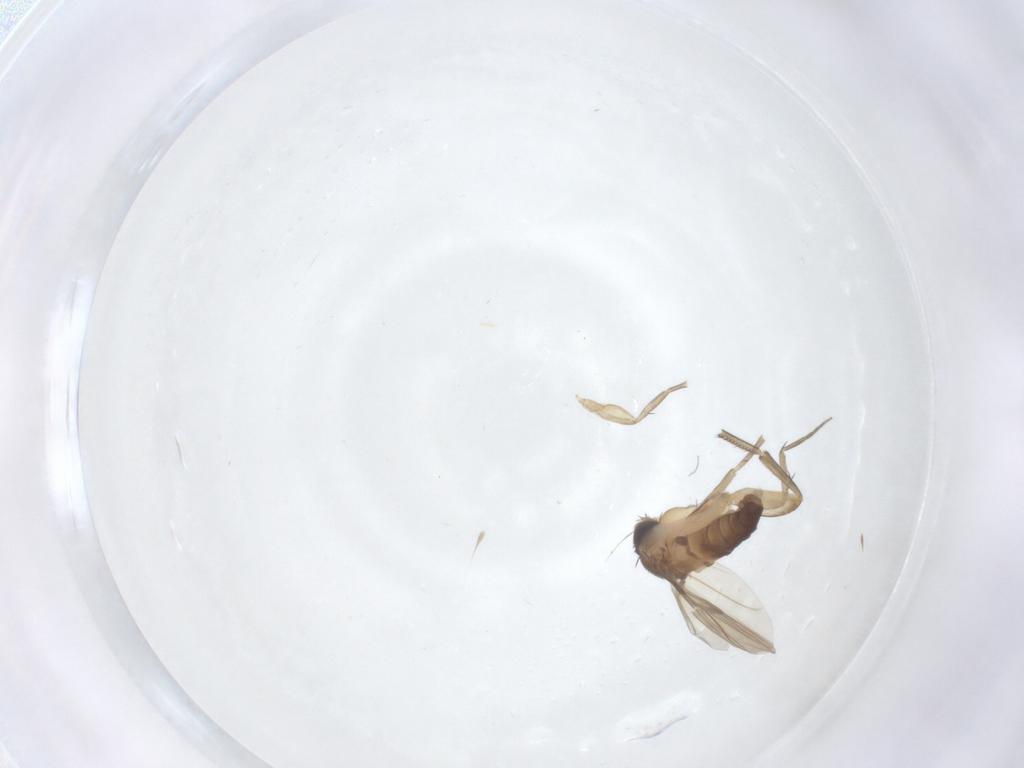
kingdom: Animalia
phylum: Arthropoda
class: Insecta
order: Diptera
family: Phoridae
